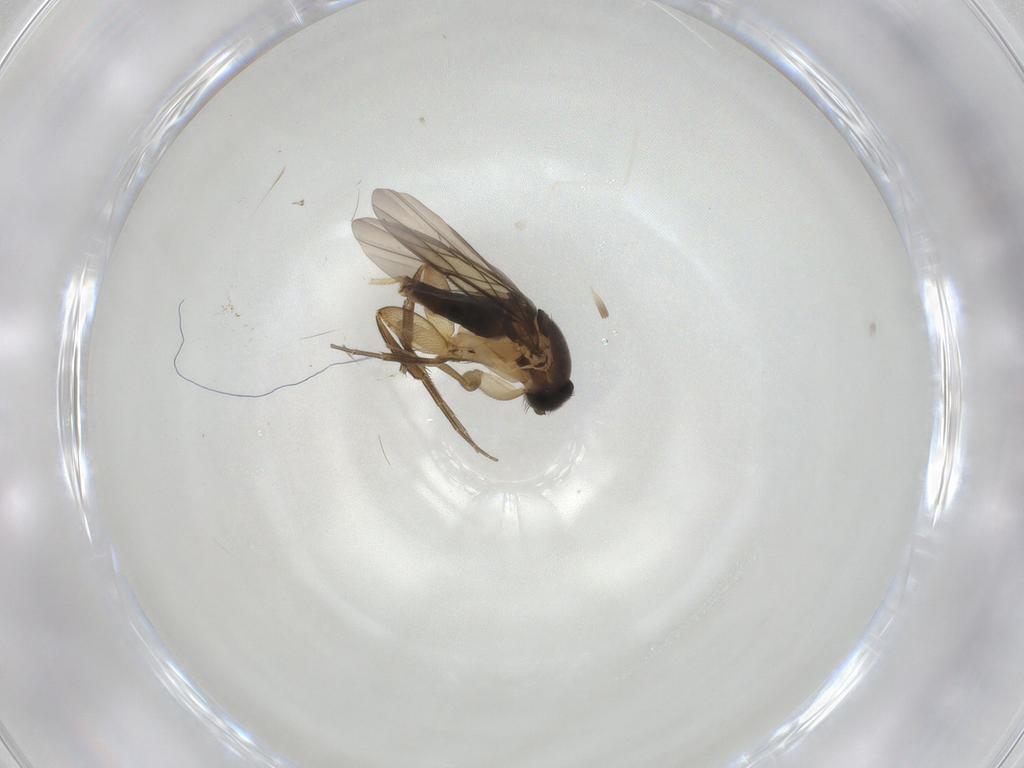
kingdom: Animalia
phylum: Arthropoda
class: Insecta
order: Diptera
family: Phoridae
